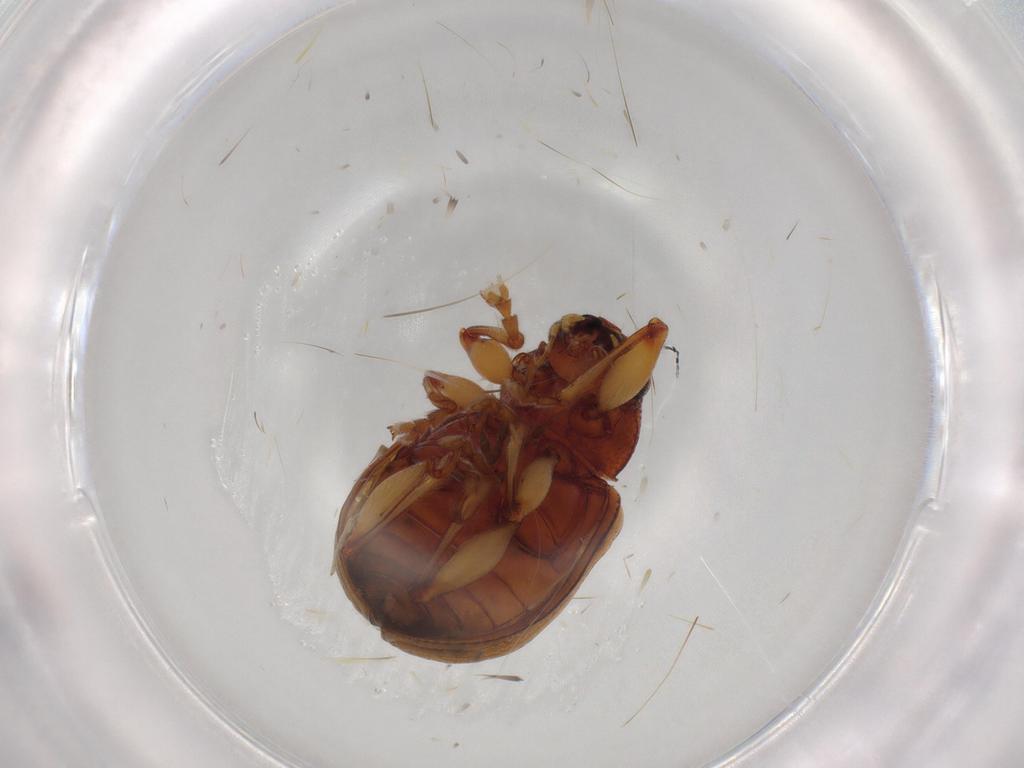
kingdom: Animalia
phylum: Arthropoda
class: Insecta
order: Coleoptera
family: Chrysomelidae
